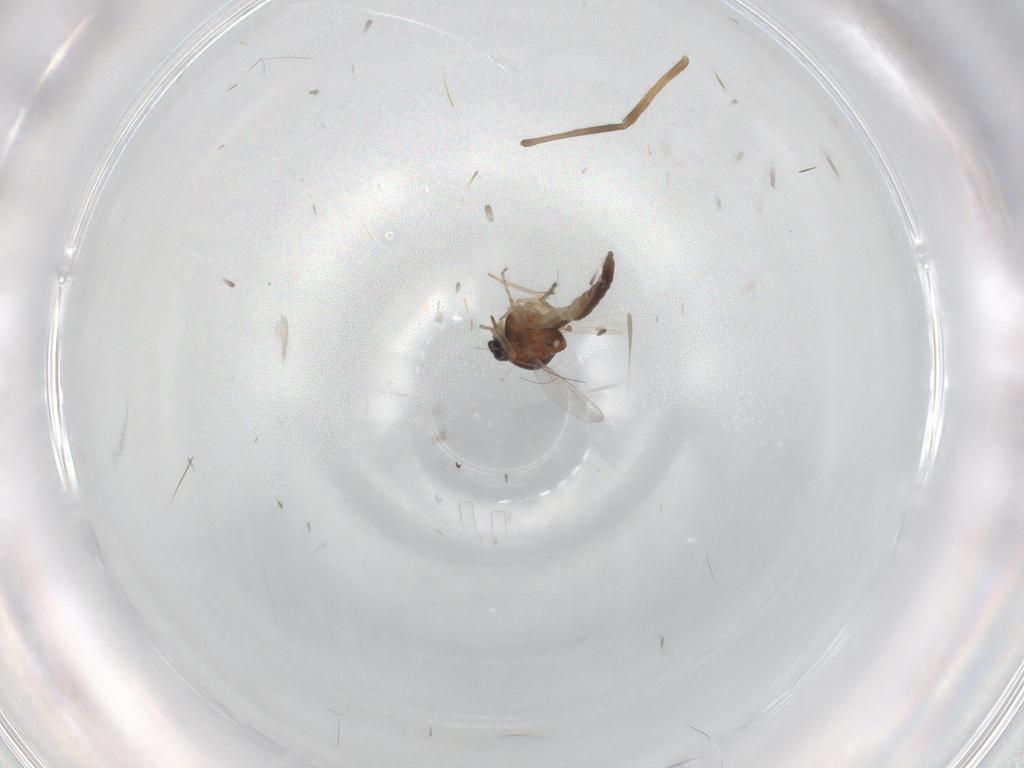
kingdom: Animalia
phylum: Arthropoda
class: Insecta
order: Diptera
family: Ceratopogonidae
